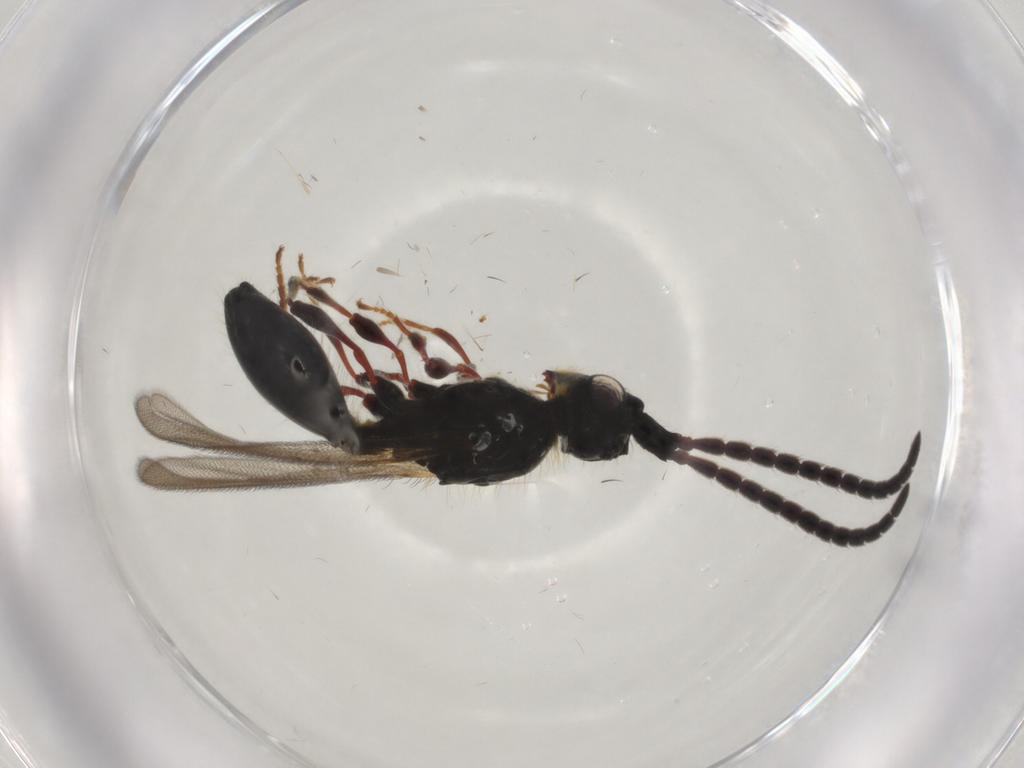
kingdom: Animalia
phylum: Arthropoda
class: Insecta
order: Hymenoptera
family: Diapriidae
